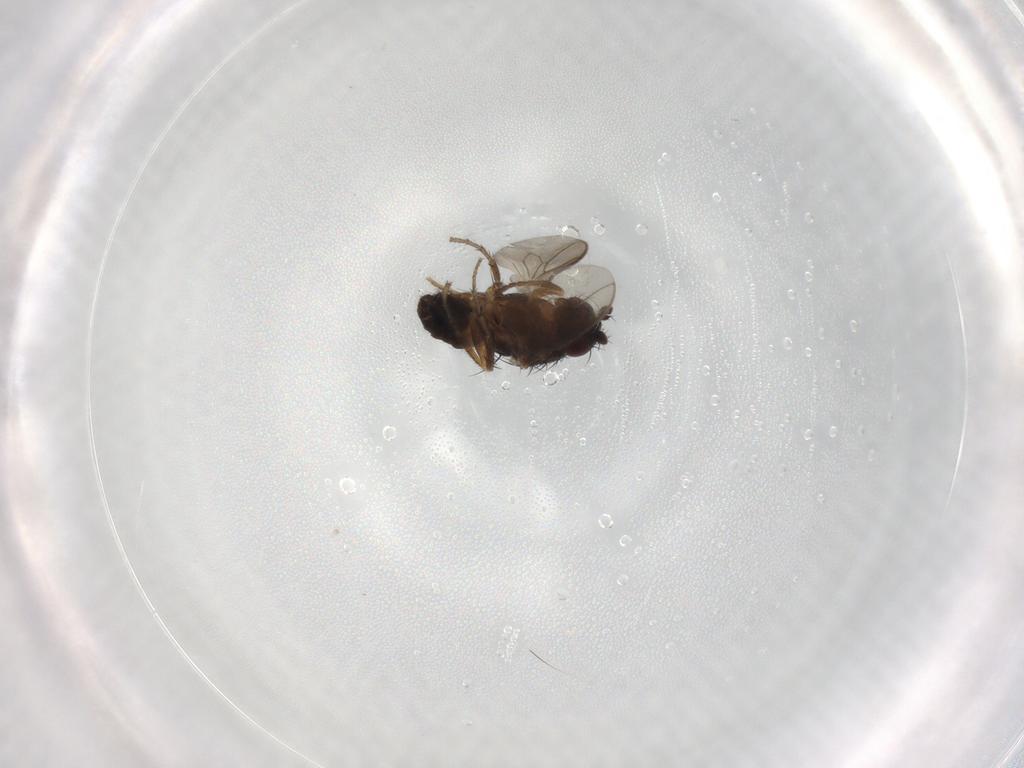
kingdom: Animalia
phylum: Arthropoda
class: Insecta
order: Diptera
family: Sphaeroceridae
